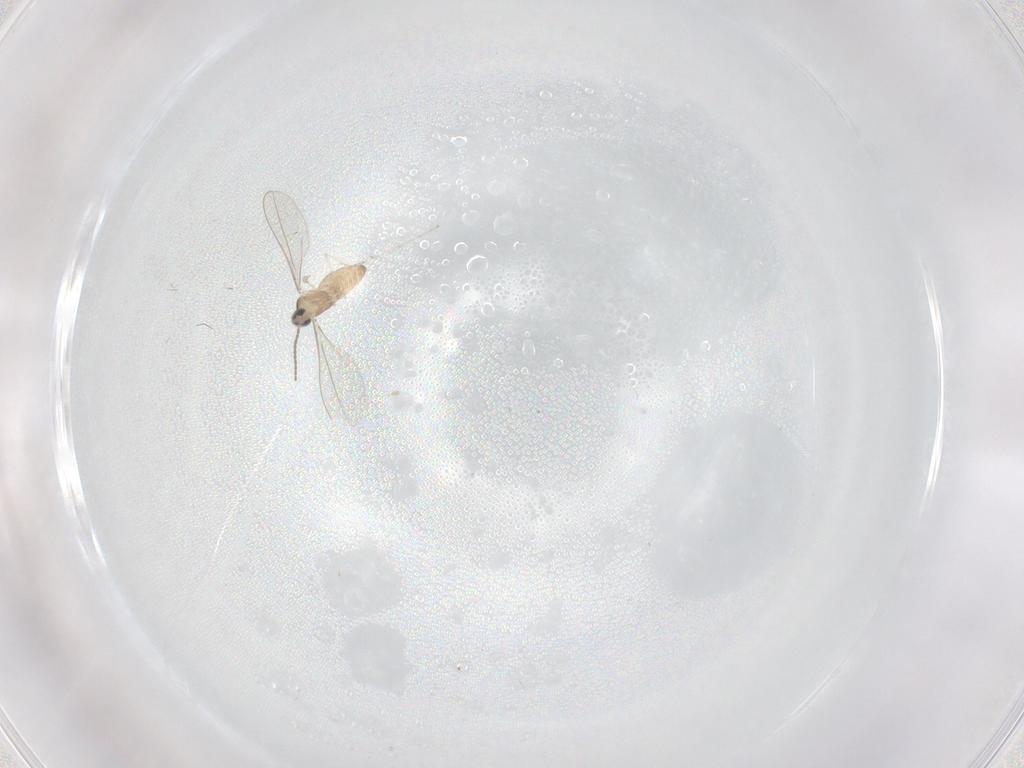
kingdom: Animalia
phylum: Arthropoda
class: Insecta
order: Diptera
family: Cecidomyiidae
